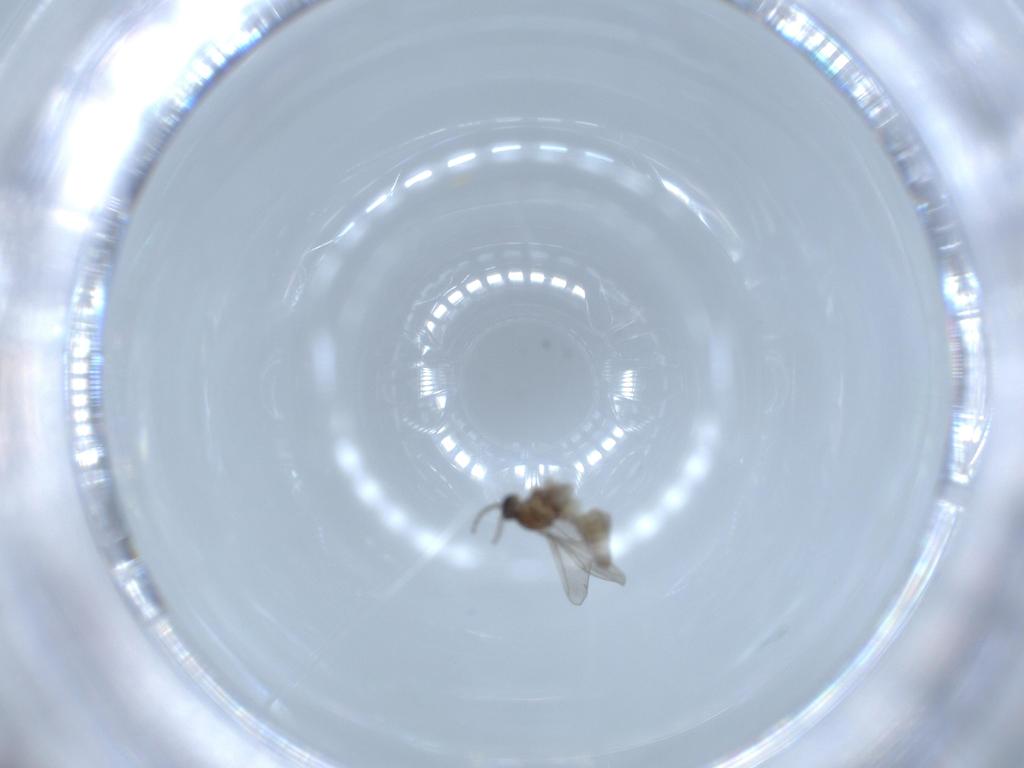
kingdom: Animalia
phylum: Arthropoda
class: Insecta
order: Diptera
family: Cecidomyiidae
